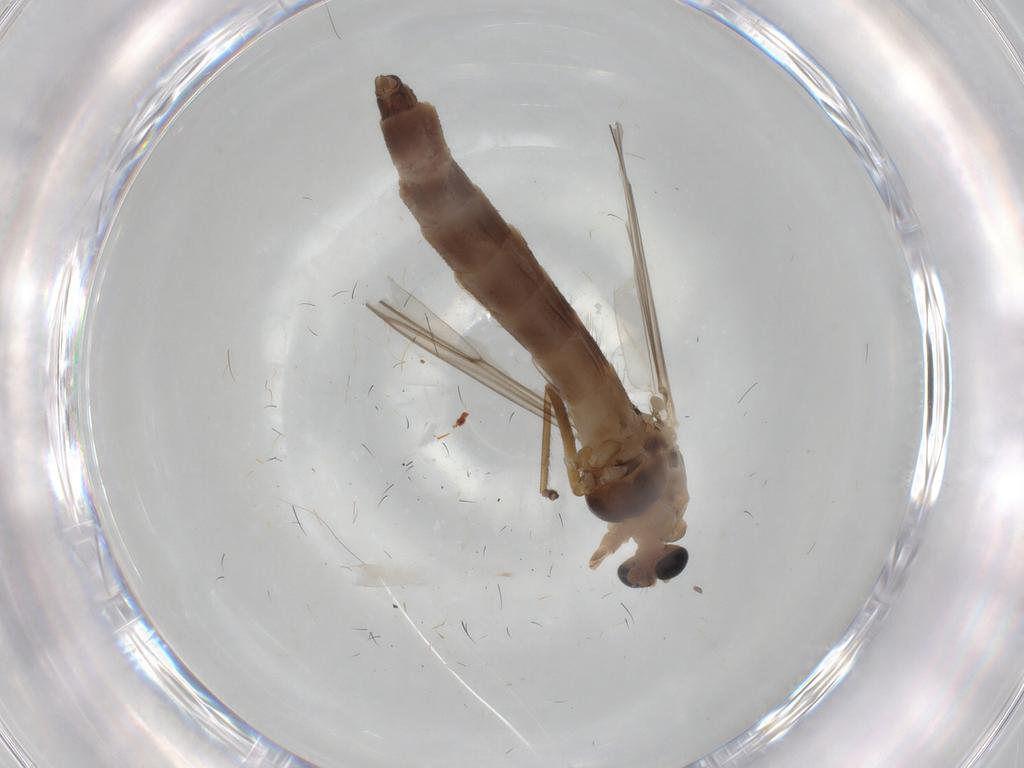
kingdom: Animalia
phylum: Arthropoda
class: Insecta
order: Diptera
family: Chironomidae
